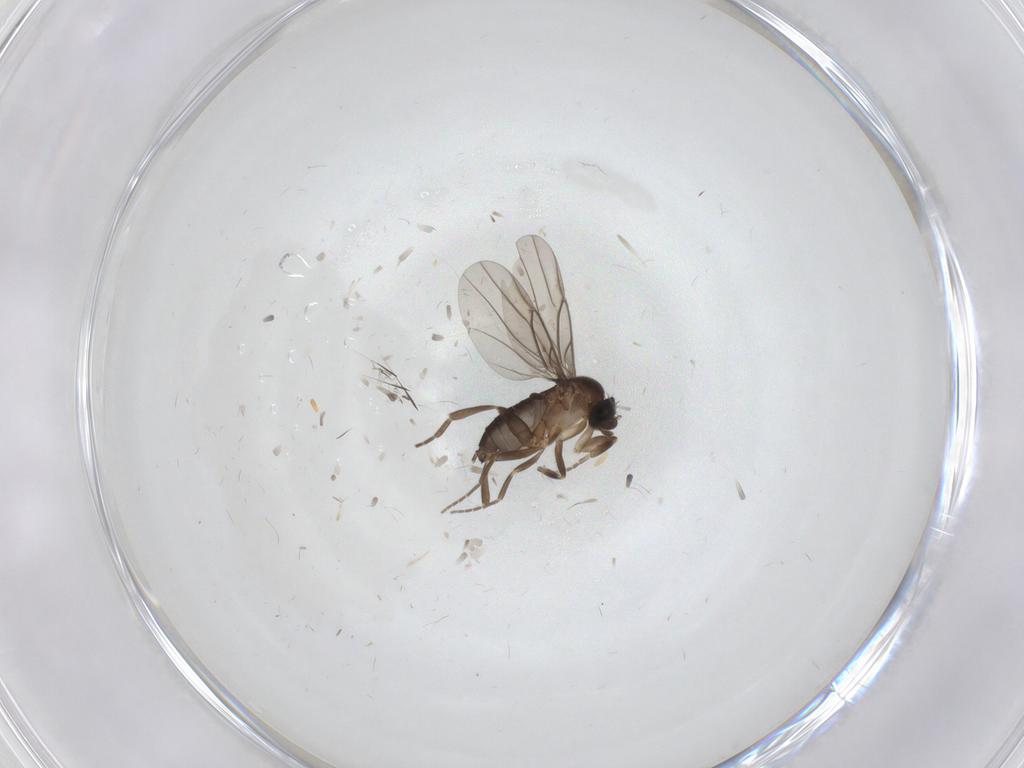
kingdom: Animalia
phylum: Arthropoda
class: Insecta
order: Diptera
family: Phoridae
